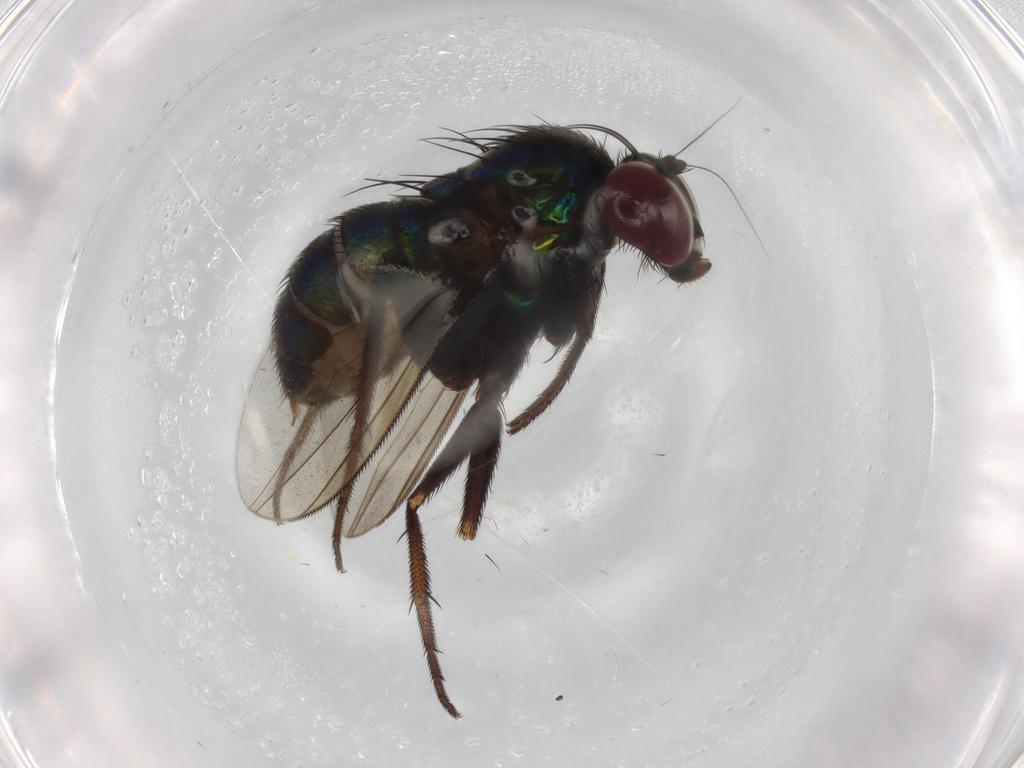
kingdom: Animalia
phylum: Arthropoda
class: Insecta
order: Diptera
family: Dolichopodidae
